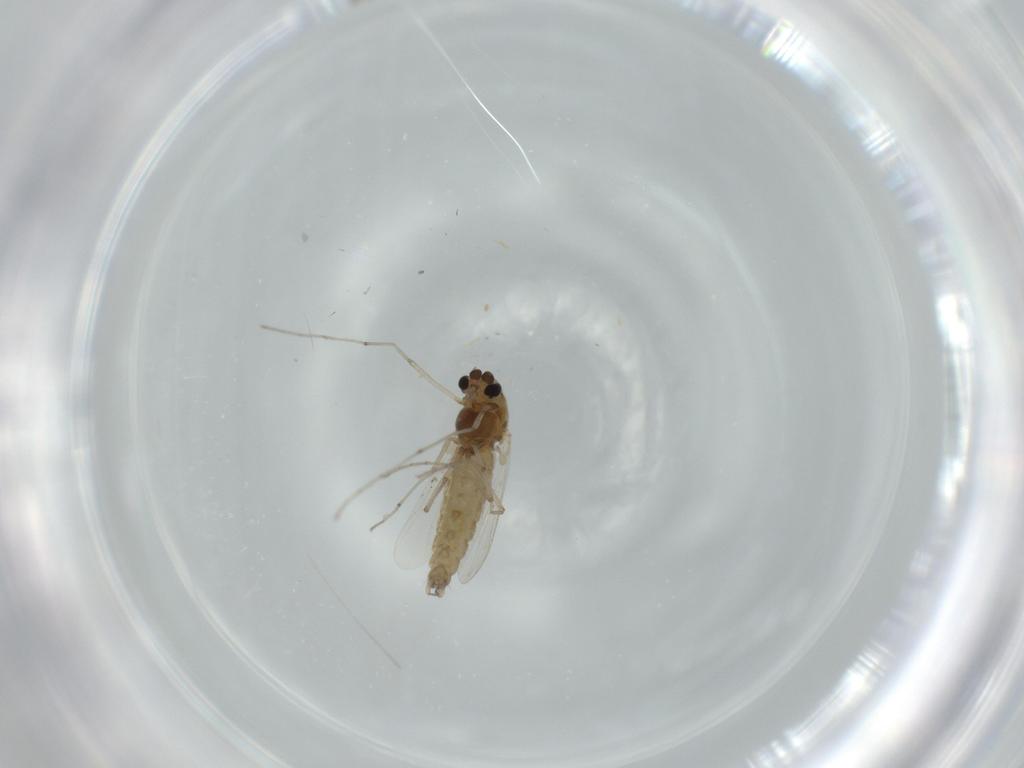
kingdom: Animalia
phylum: Arthropoda
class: Insecta
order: Diptera
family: Chironomidae
